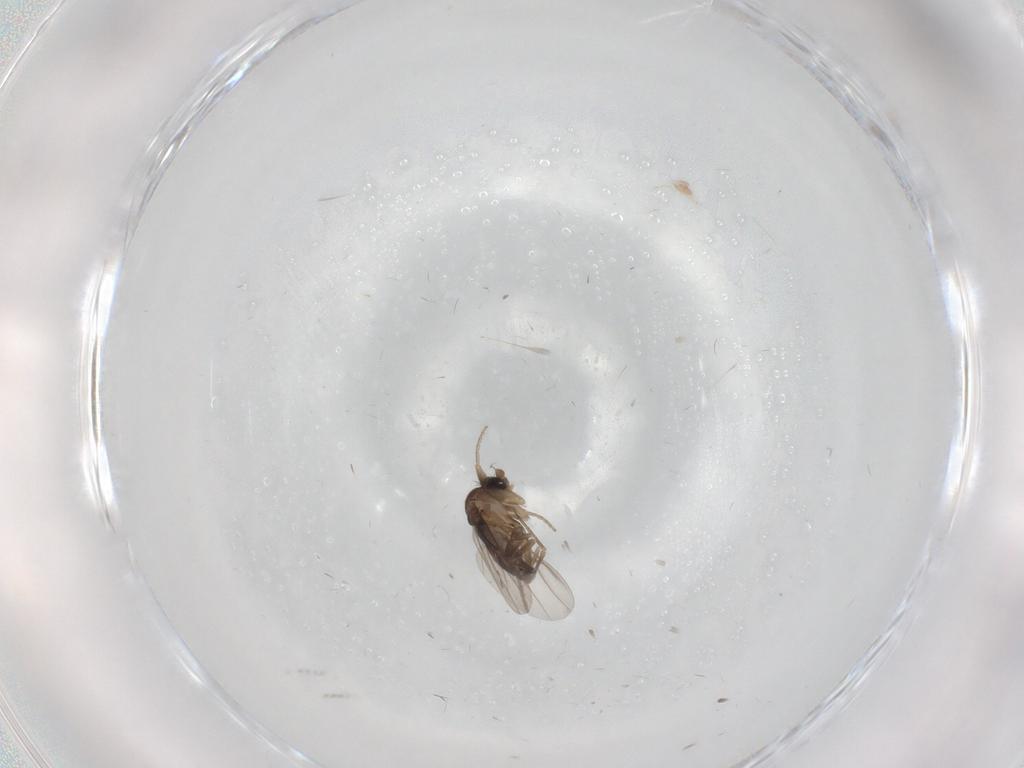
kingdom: Animalia
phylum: Arthropoda
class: Insecta
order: Diptera
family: Phoridae
